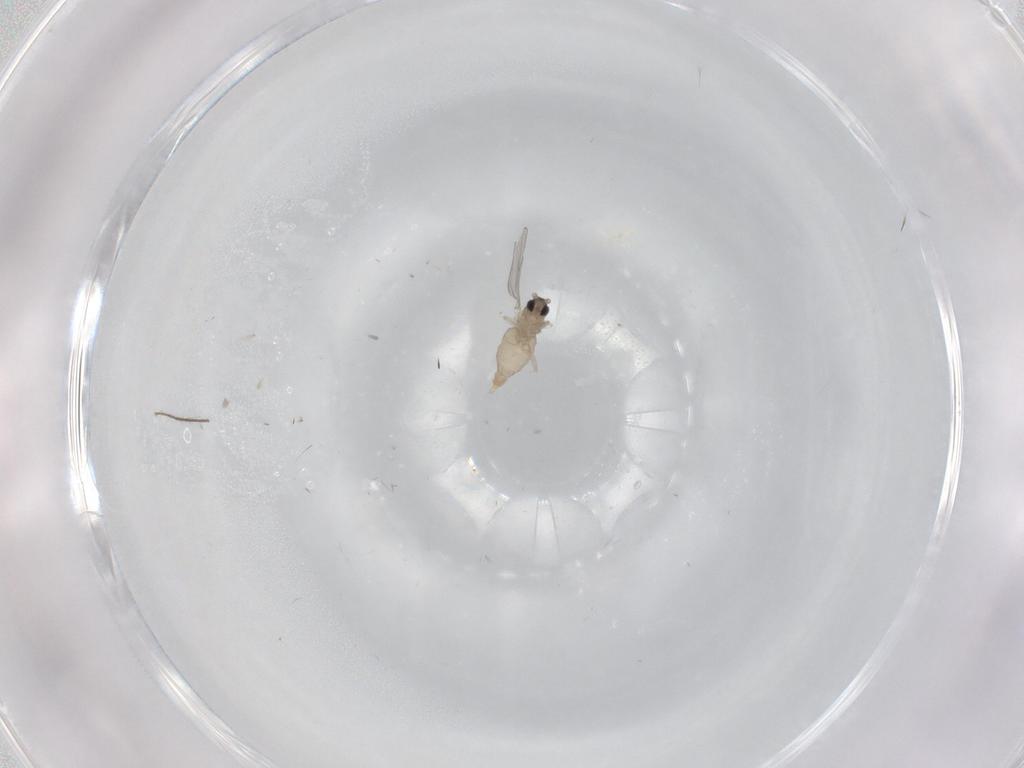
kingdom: Animalia
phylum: Arthropoda
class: Insecta
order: Diptera
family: Cecidomyiidae
